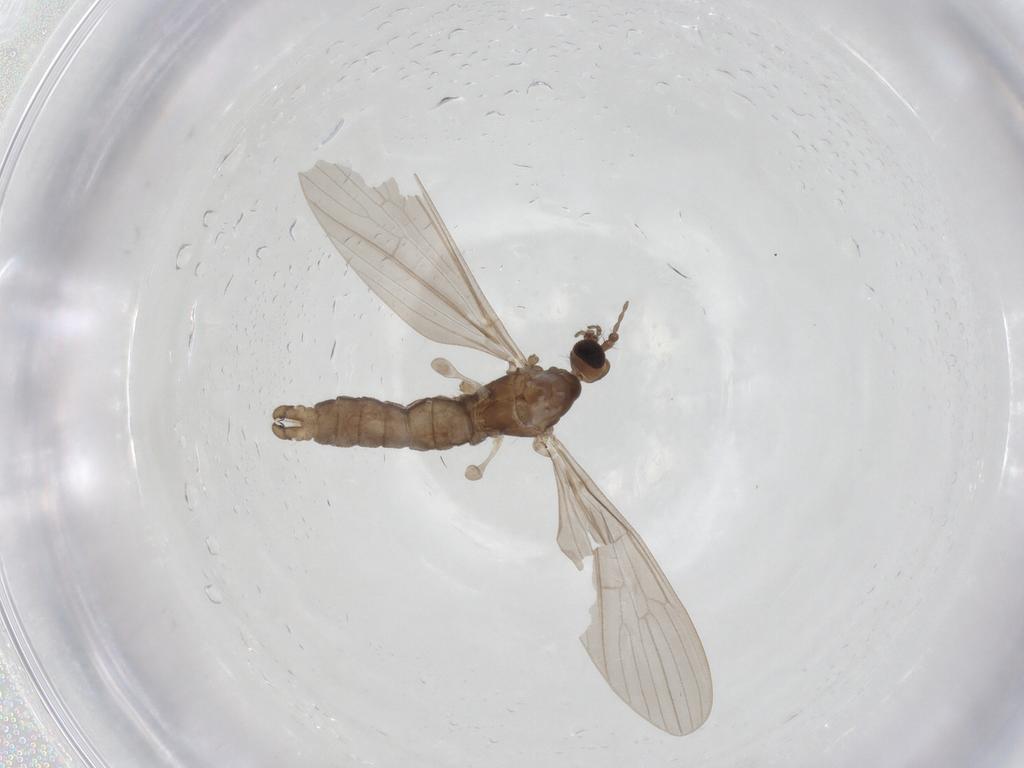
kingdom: Animalia
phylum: Arthropoda
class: Insecta
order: Diptera
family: Limoniidae
